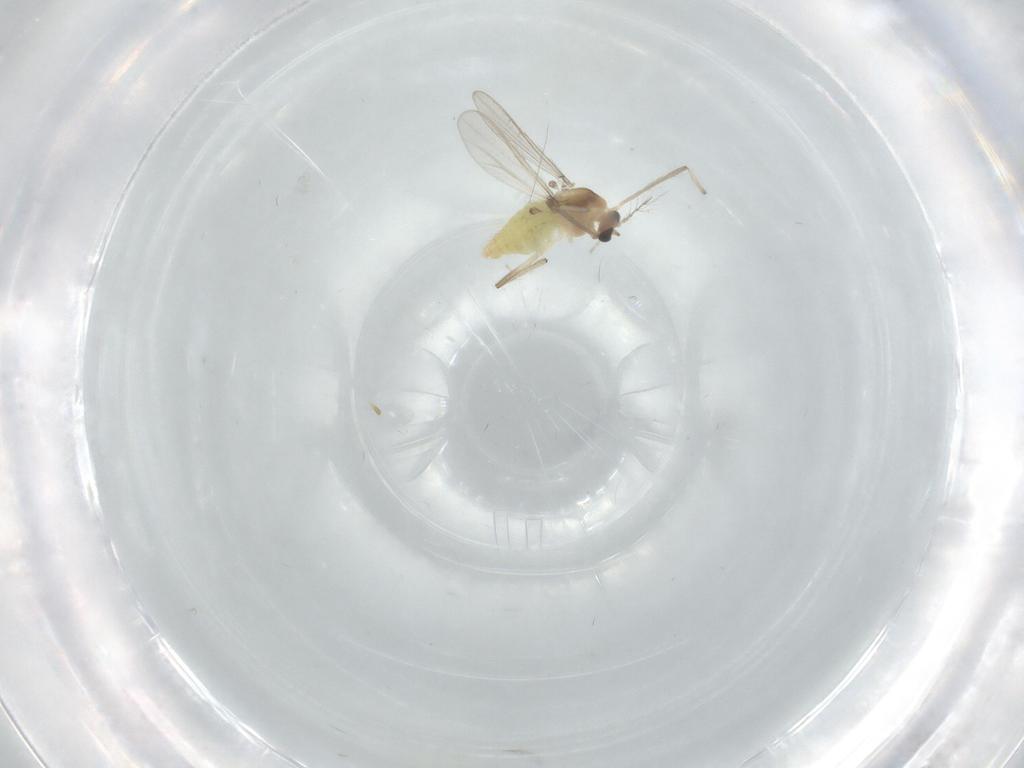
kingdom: Animalia
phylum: Arthropoda
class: Insecta
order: Diptera
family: Chironomidae
